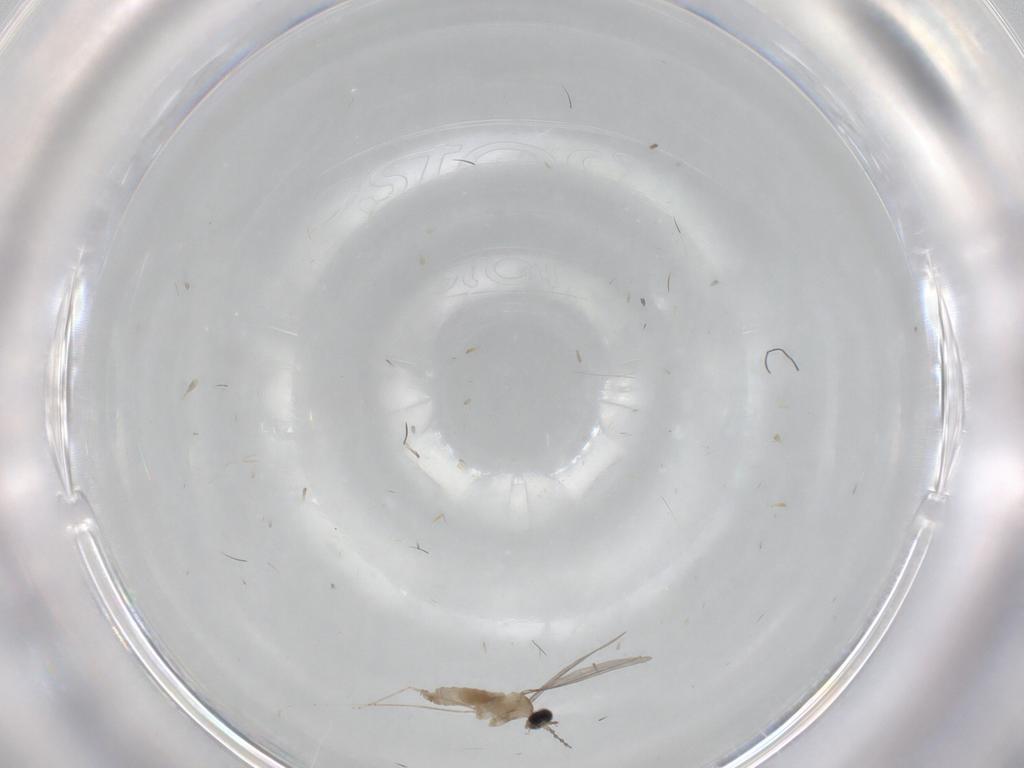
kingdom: Animalia
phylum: Arthropoda
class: Insecta
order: Diptera
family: Cecidomyiidae
